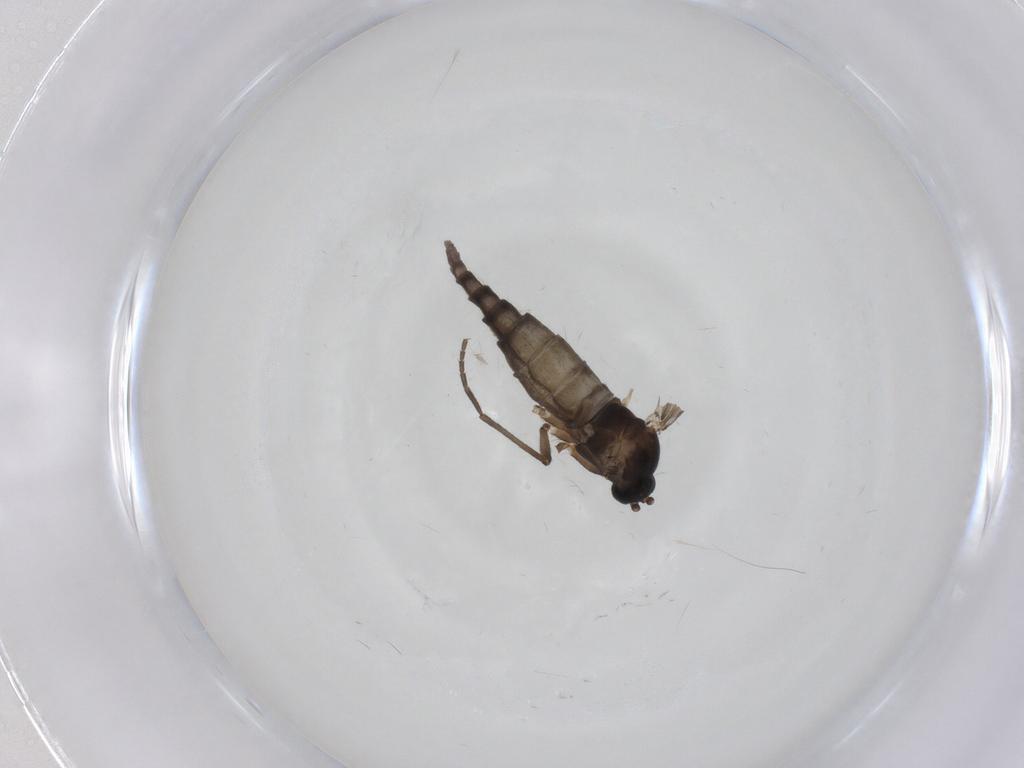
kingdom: Animalia
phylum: Arthropoda
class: Insecta
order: Diptera
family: Sciaridae
